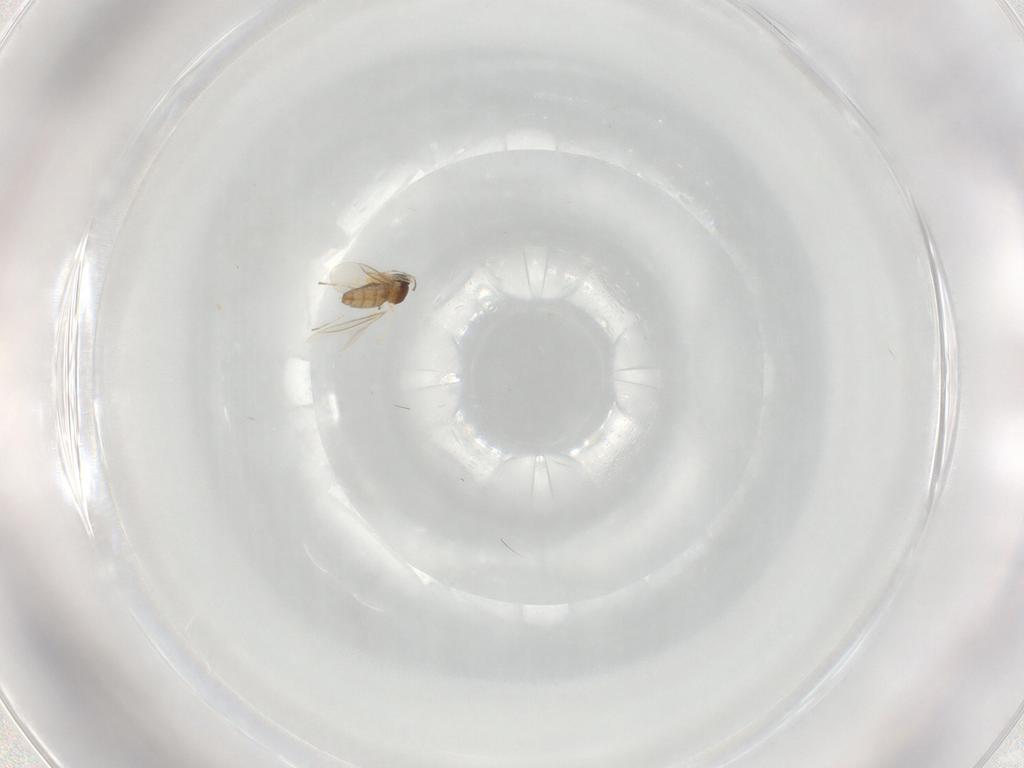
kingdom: Animalia
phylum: Arthropoda
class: Insecta
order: Diptera
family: Cecidomyiidae
